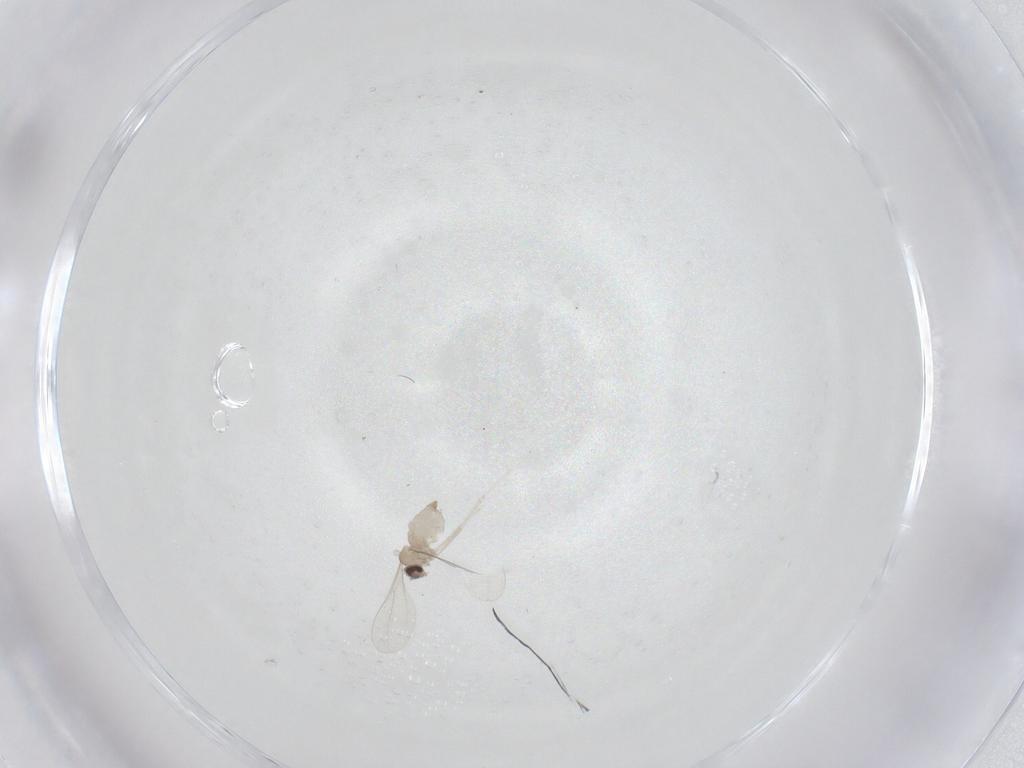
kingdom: Animalia
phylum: Arthropoda
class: Insecta
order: Diptera
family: Cecidomyiidae
